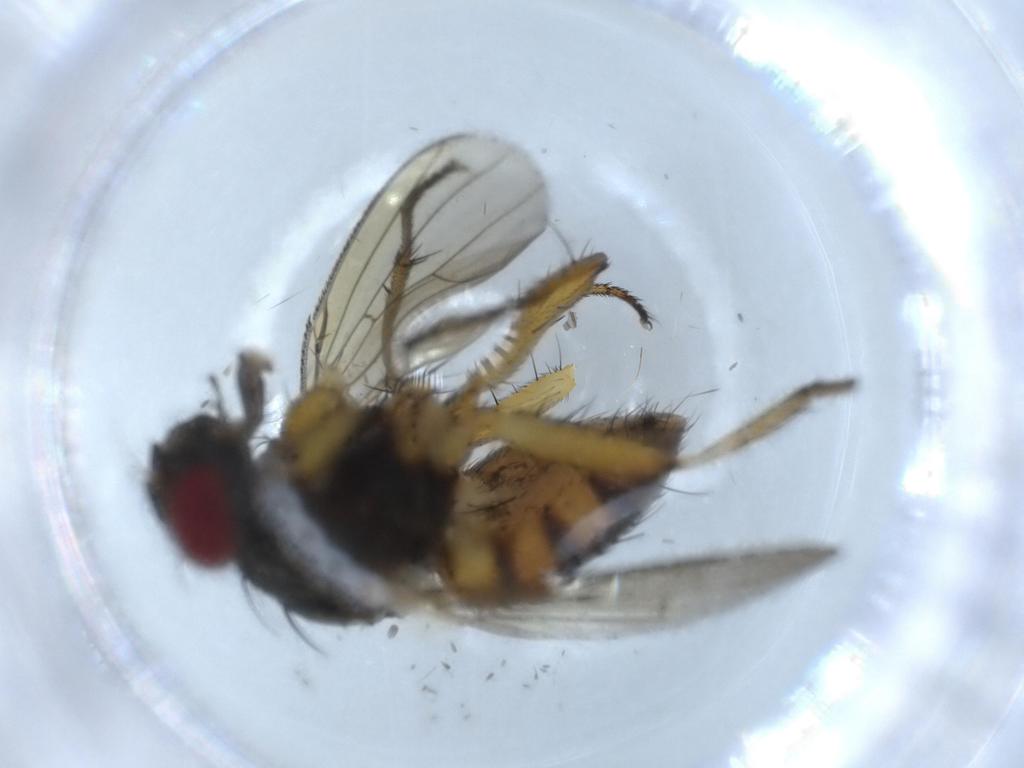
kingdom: Animalia
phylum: Arthropoda
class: Insecta
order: Diptera
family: Muscidae
